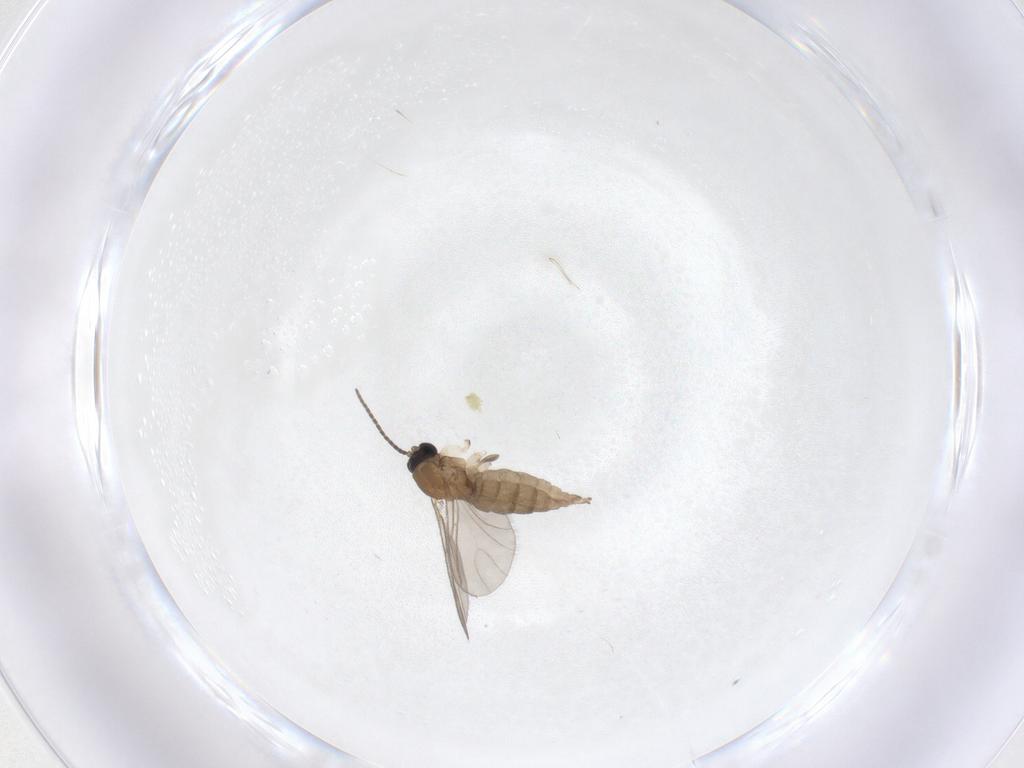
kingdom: Animalia
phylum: Arthropoda
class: Insecta
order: Diptera
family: Sciaridae
